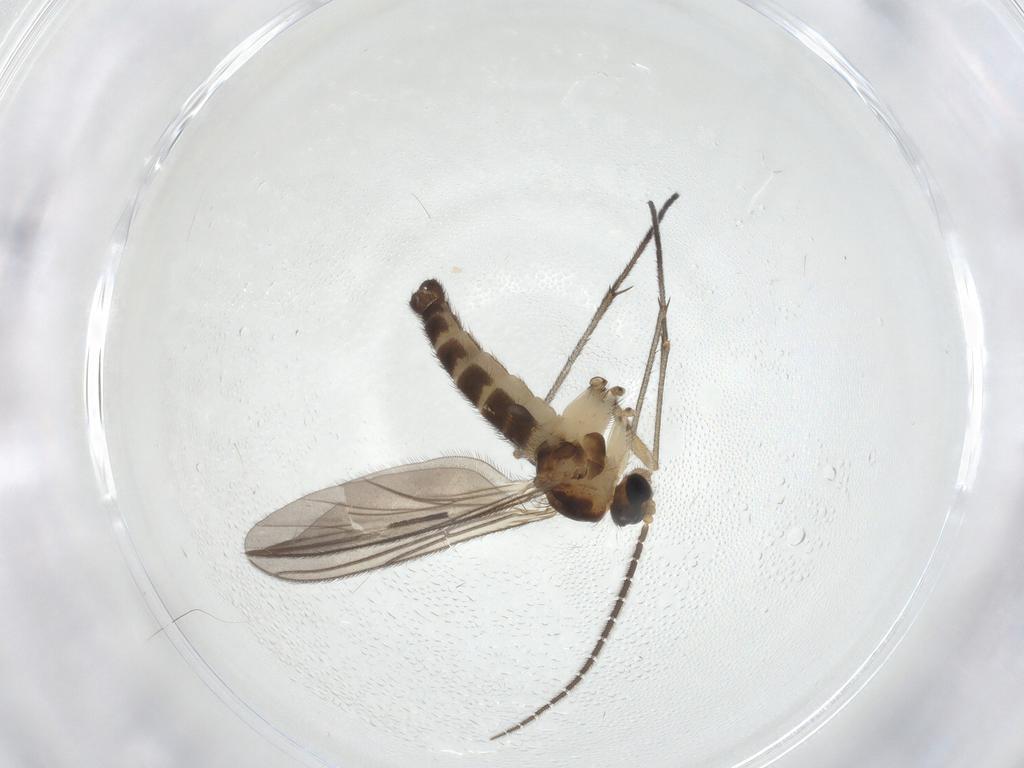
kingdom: Animalia
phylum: Arthropoda
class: Insecta
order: Diptera
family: Sciaridae
